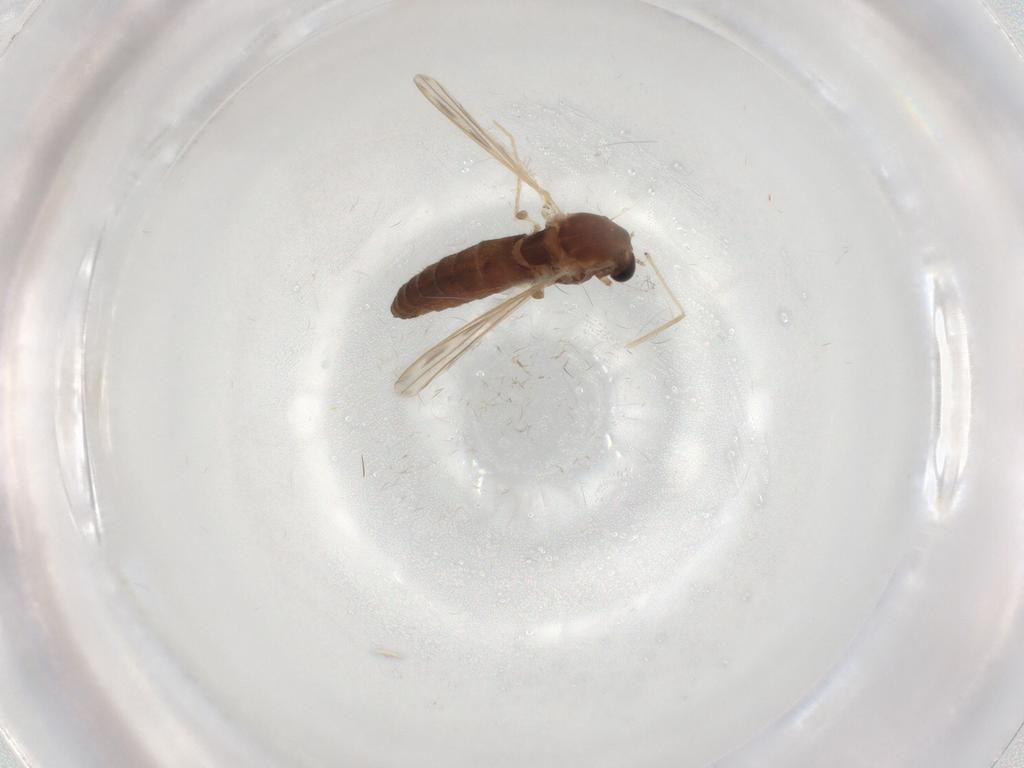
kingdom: Animalia
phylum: Arthropoda
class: Insecta
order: Diptera
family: Chironomidae
